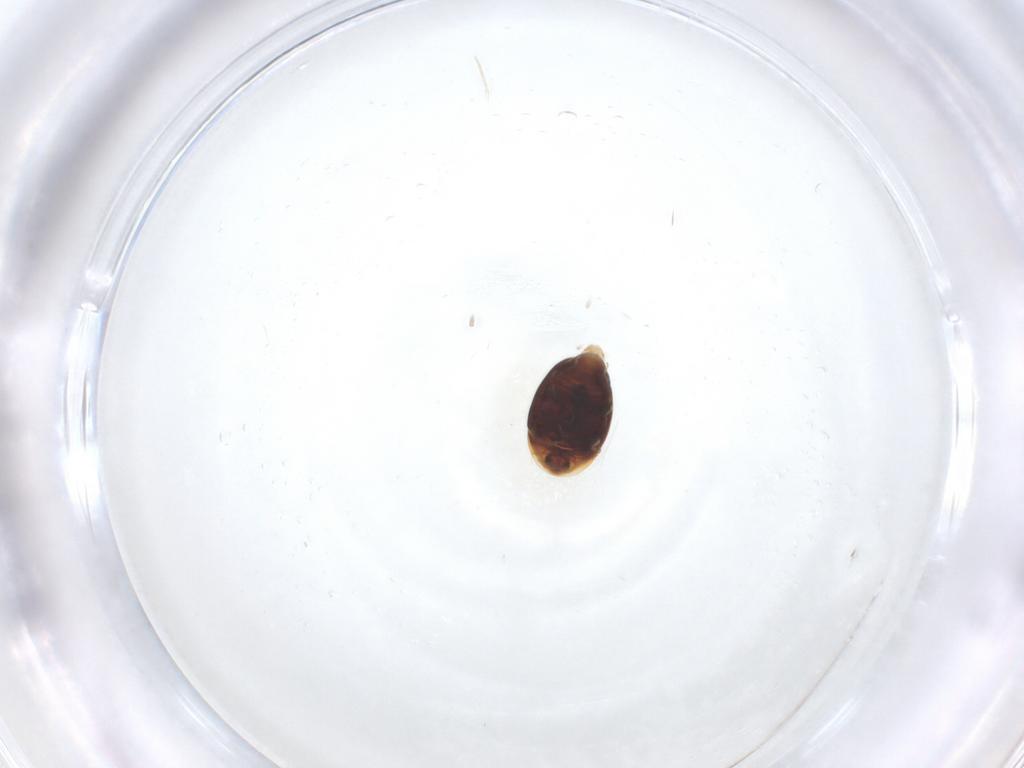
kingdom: Animalia
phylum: Arthropoda
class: Insecta
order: Coleoptera
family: Corylophidae
